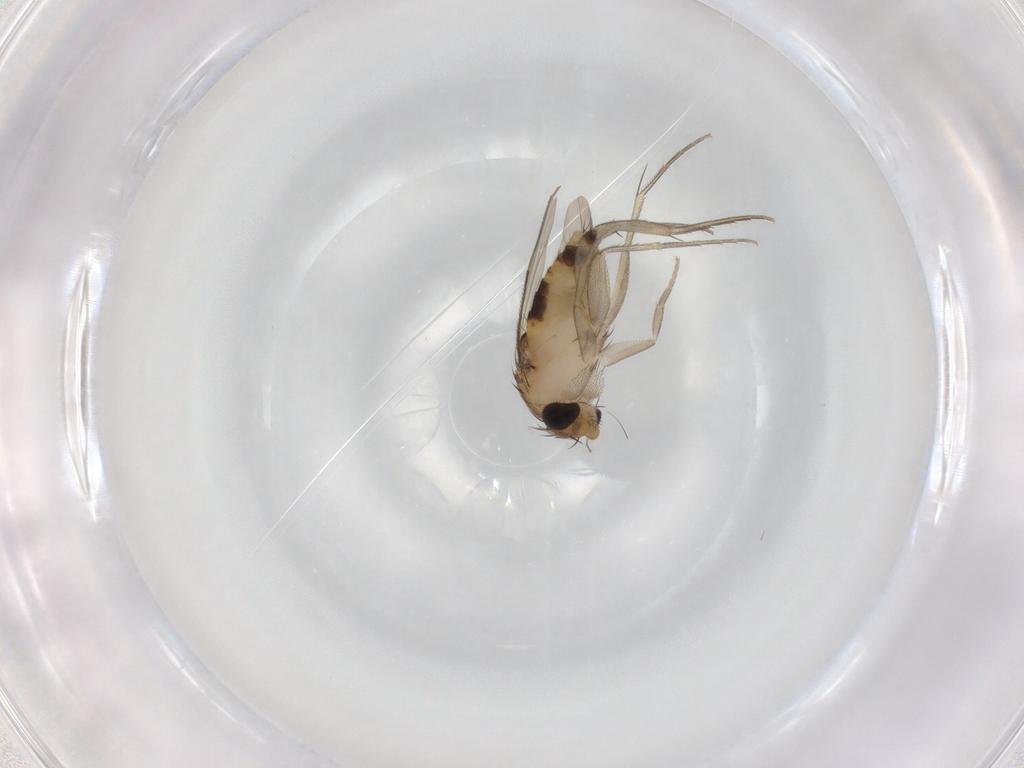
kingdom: Animalia
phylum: Arthropoda
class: Insecta
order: Diptera
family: Phoridae
